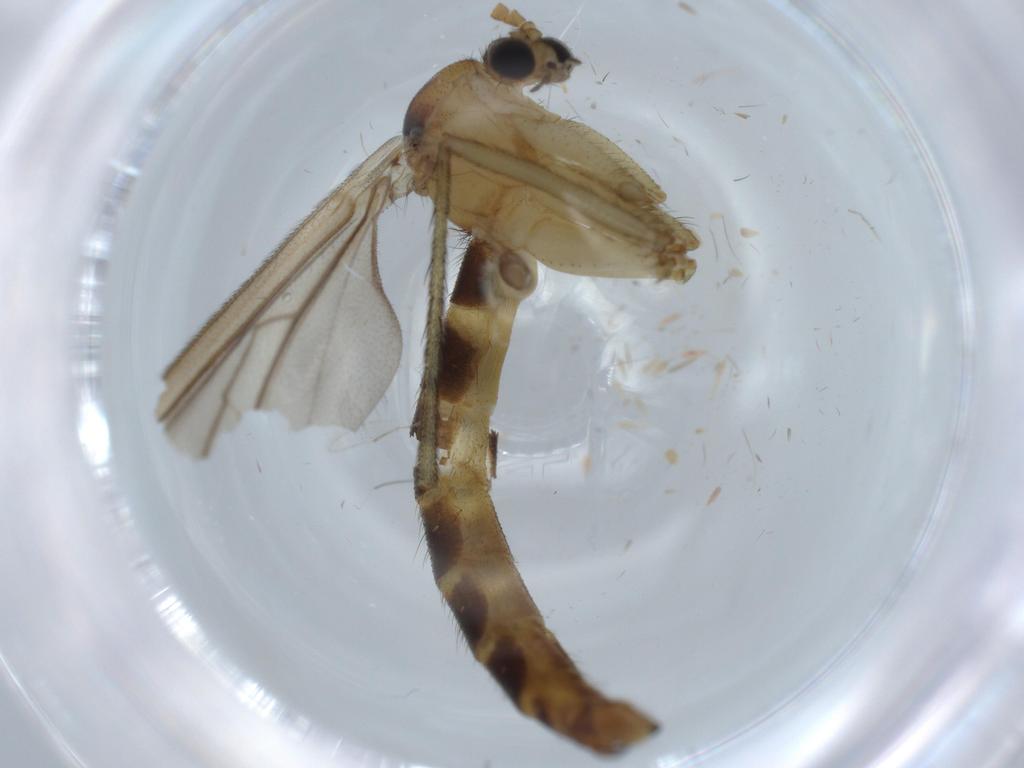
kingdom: Animalia
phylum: Arthropoda
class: Insecta
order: Diptera
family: Ditomyiidae
